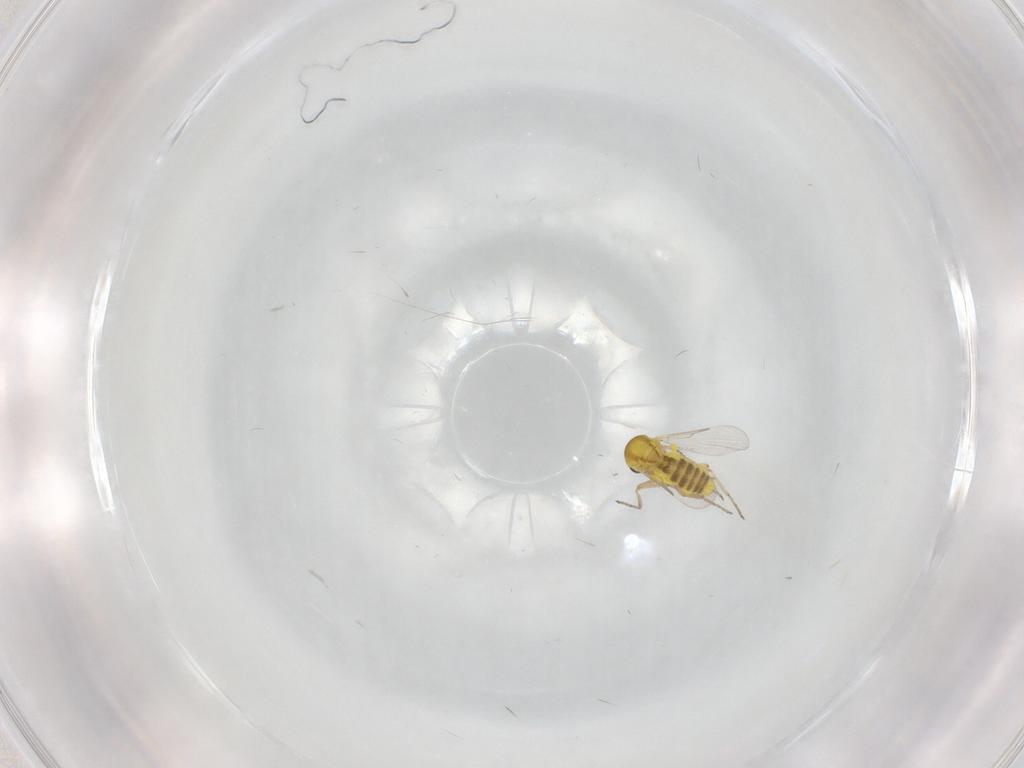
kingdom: Animalia
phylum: Arthropoda
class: Insecta
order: Diptera
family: Ceratopogonidae
